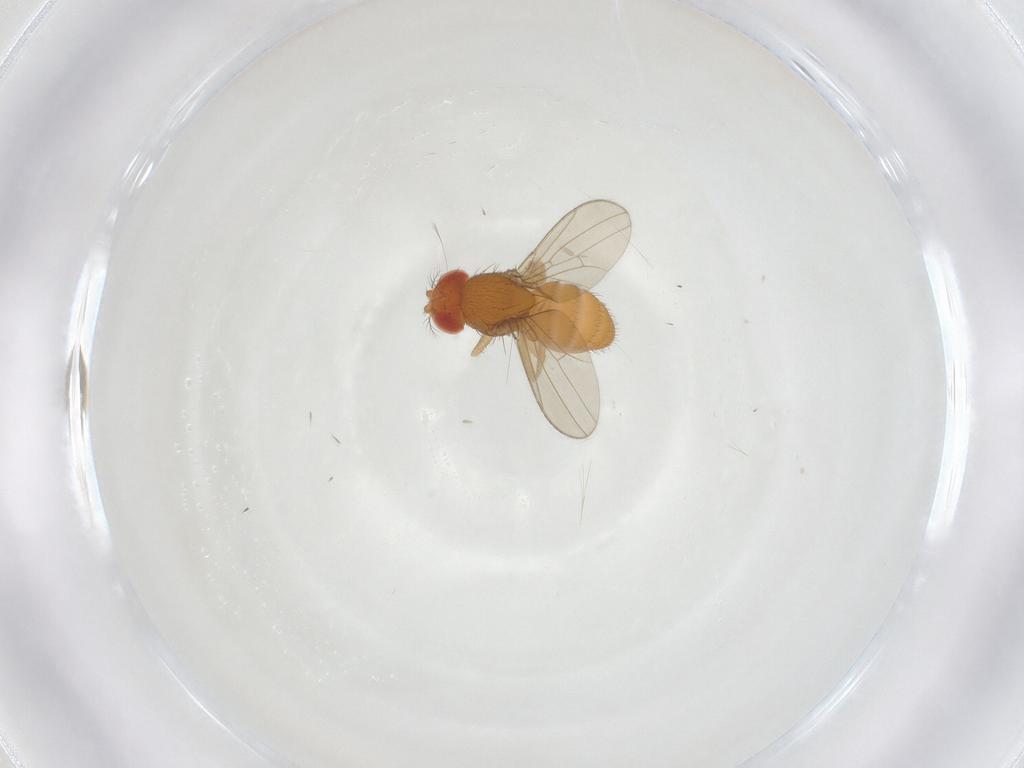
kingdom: Animalia
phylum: Arthropoda
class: Insecta
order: Diptera
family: Drosophilidae
